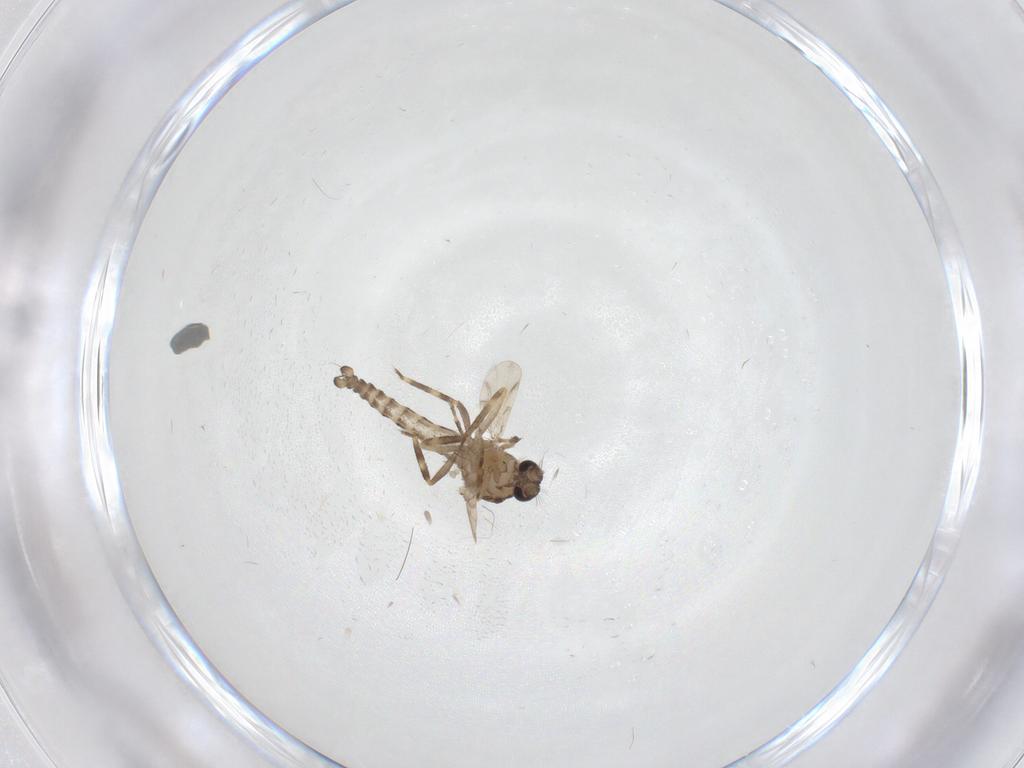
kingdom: Animalia
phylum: Arthropoda
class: Insecta
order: Diptera
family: Ceratopogonidae
